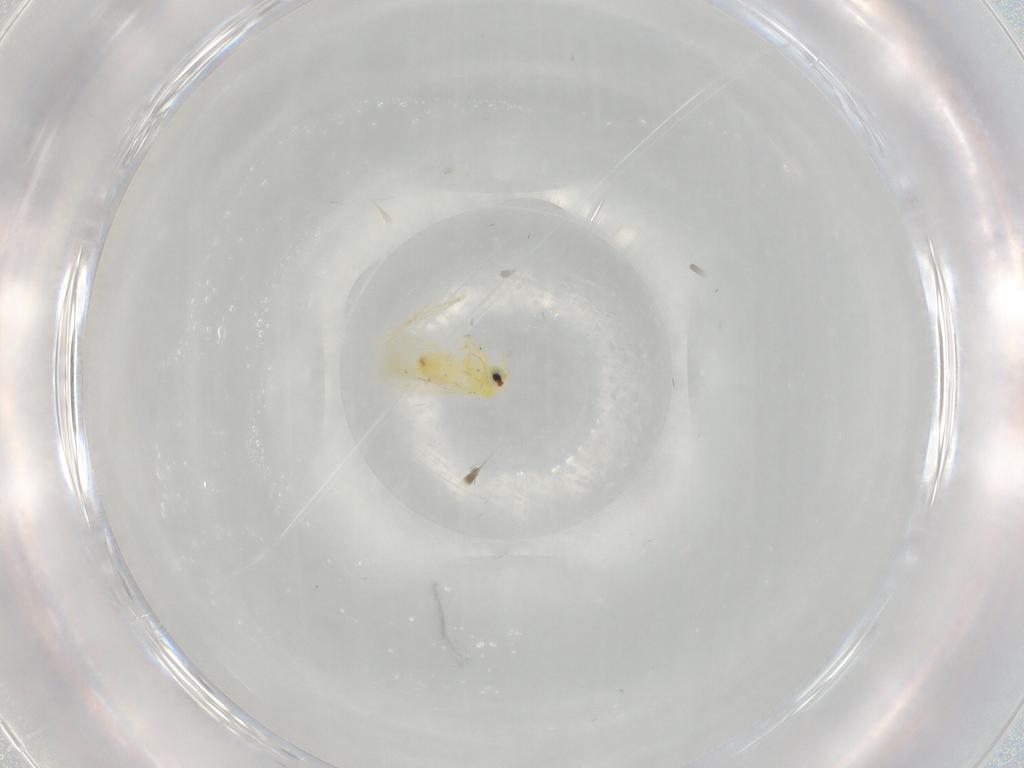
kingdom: Animalia
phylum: Arthropoda
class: Insecta
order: Hemiptera
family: Aleyrodidae
